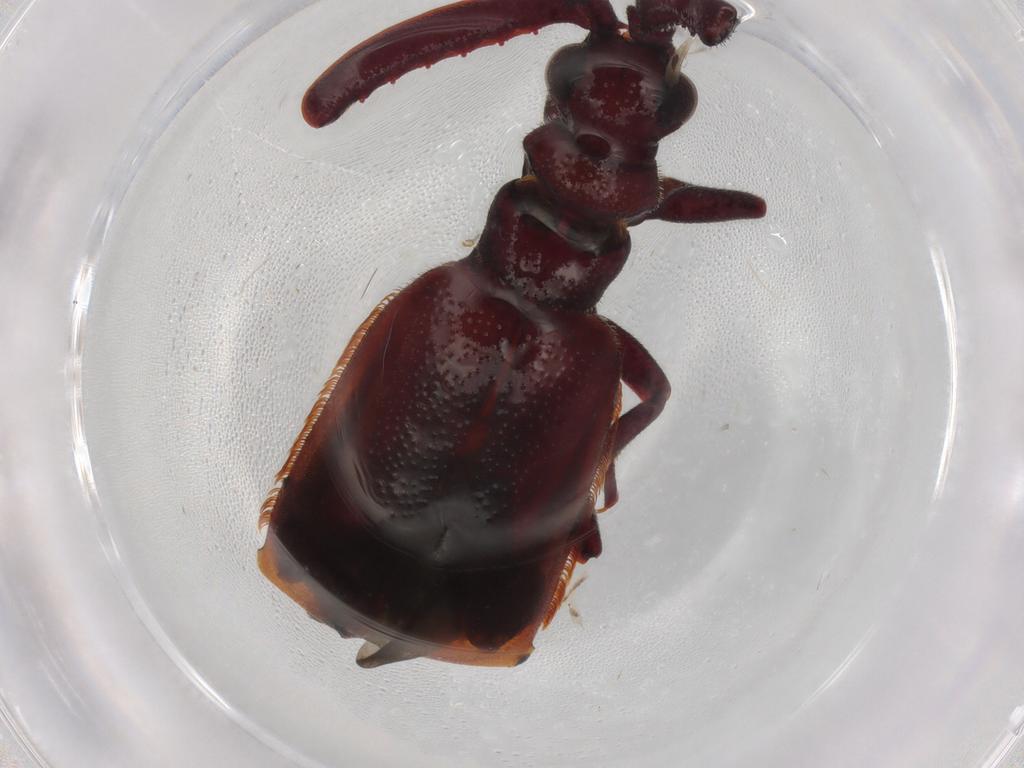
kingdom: Animalia
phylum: Arthropoda
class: Insecta
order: Coleoptera
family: Carabidae
